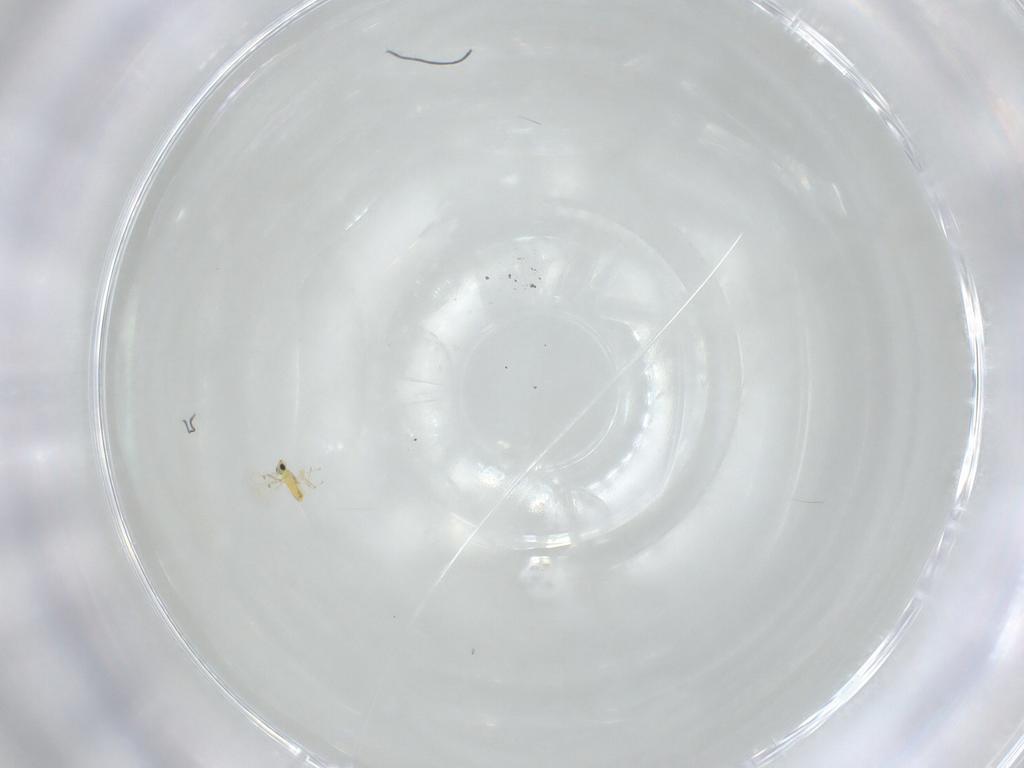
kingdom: Animalia
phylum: Arthropoda
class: Insecta
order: Hymenoptera
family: Trichogrammatidae
